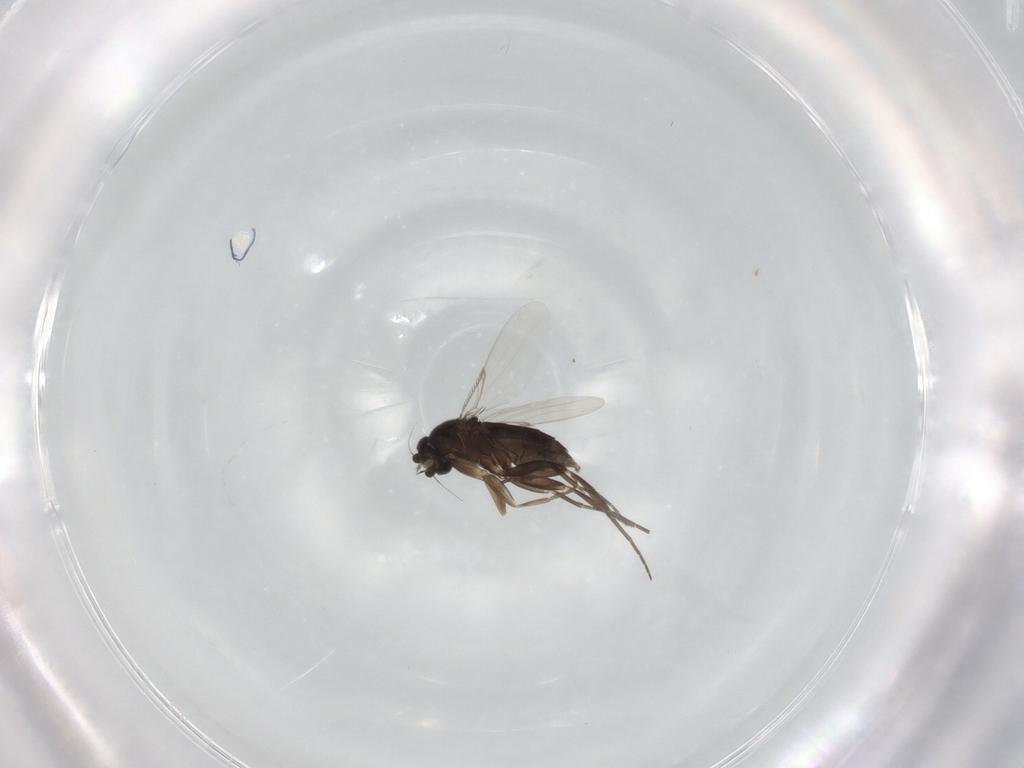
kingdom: Animalia
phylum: Arthropoda
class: Insecta
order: Diptera
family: Phoridae
